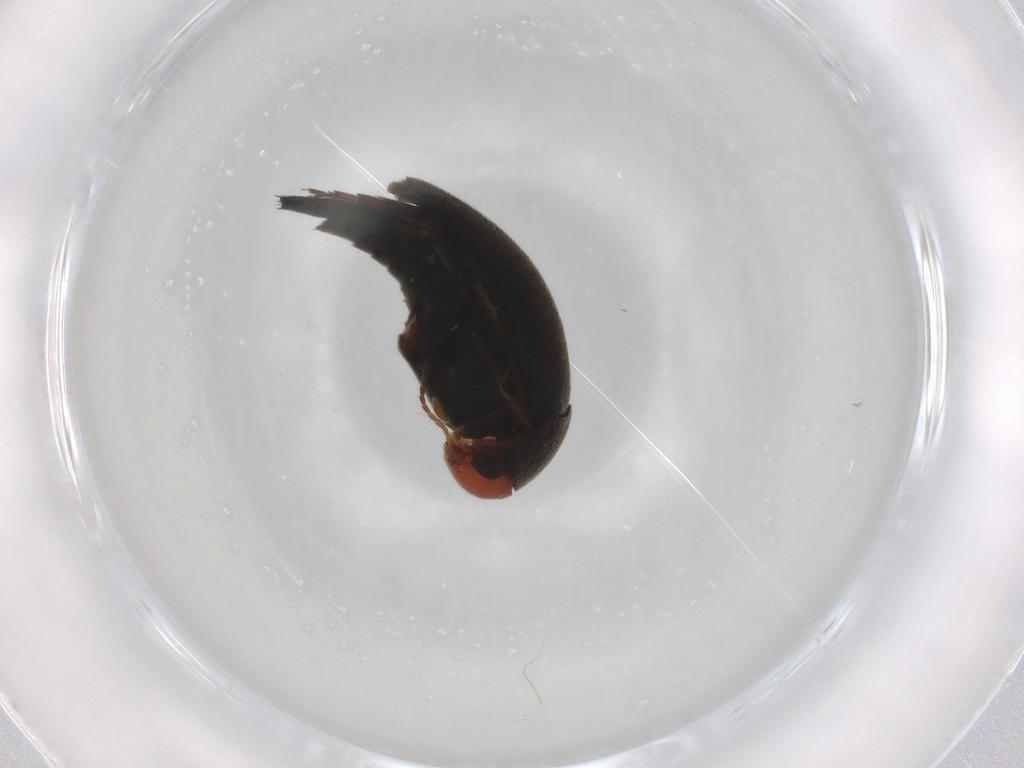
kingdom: Animalia
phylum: Arthropoda
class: Insecta
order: Coleoptera
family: Mordellidae
